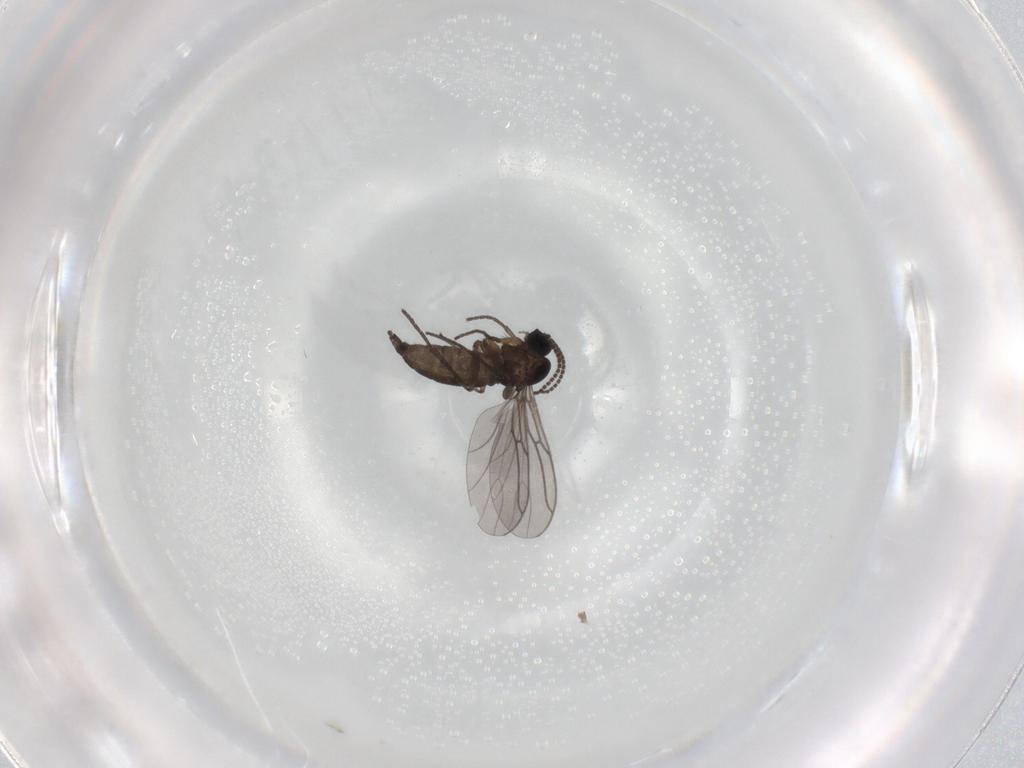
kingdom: Animalia
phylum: Arthropoda
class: Insecta
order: Diptera
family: Sciaridae
